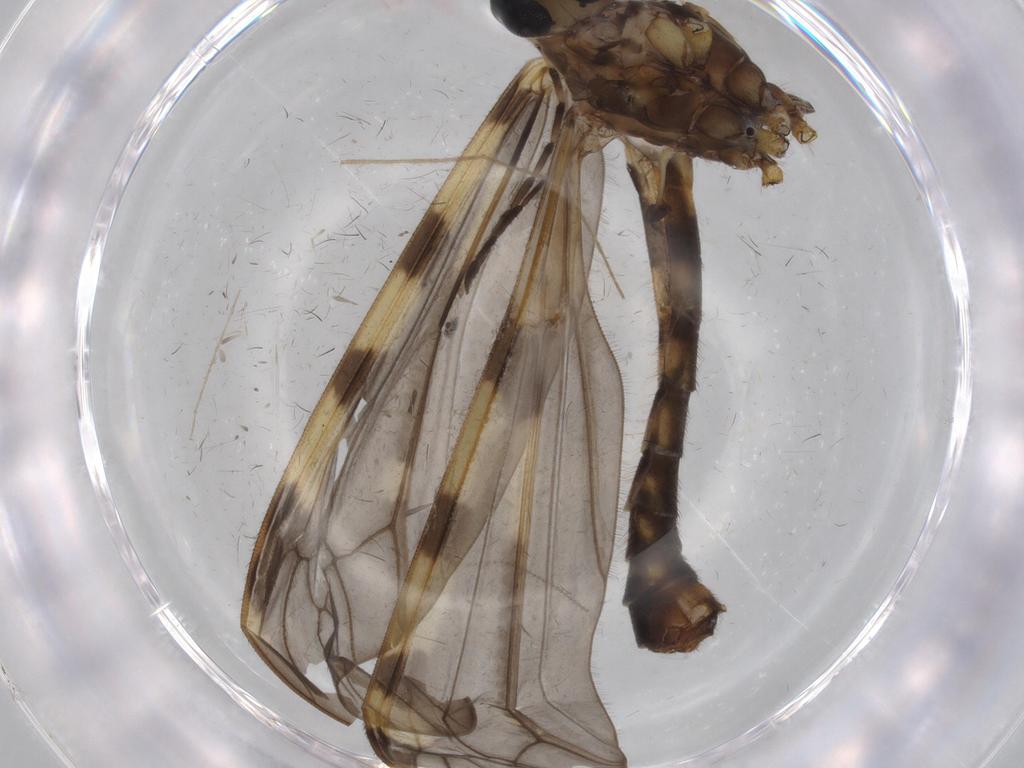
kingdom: Animalia
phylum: Arthropoda
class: Insecta
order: Diptera
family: Tipulidae
